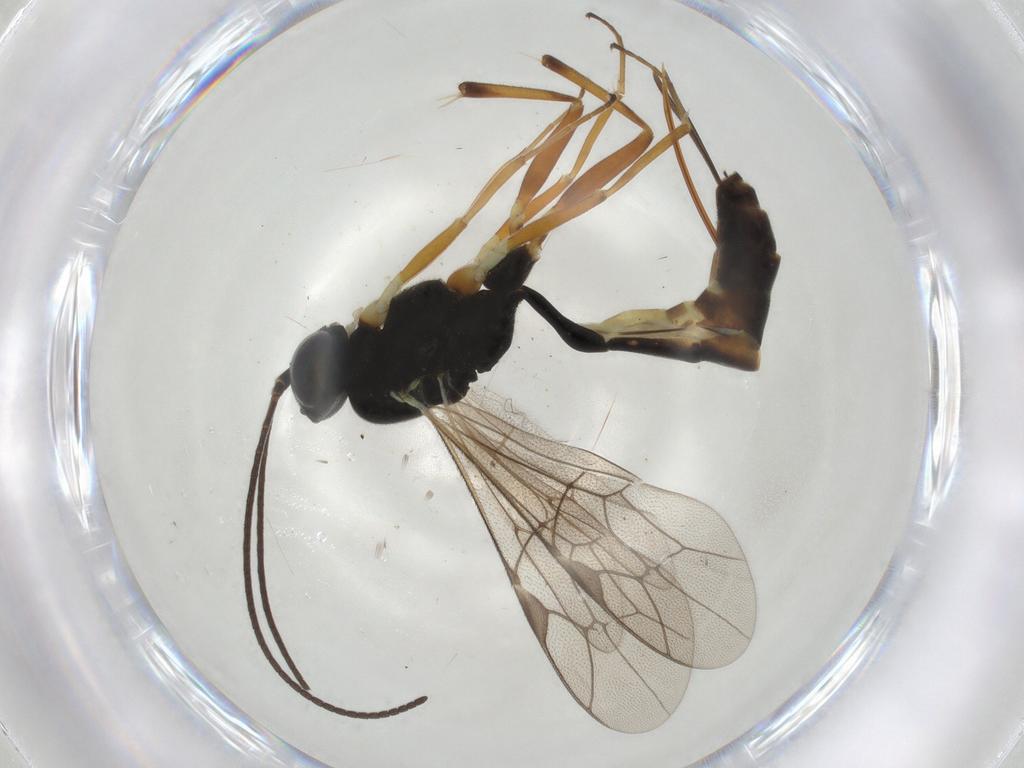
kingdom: Animalia
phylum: Arthropoda
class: Insecta
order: Hymenoptera
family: Ichneumonidae
